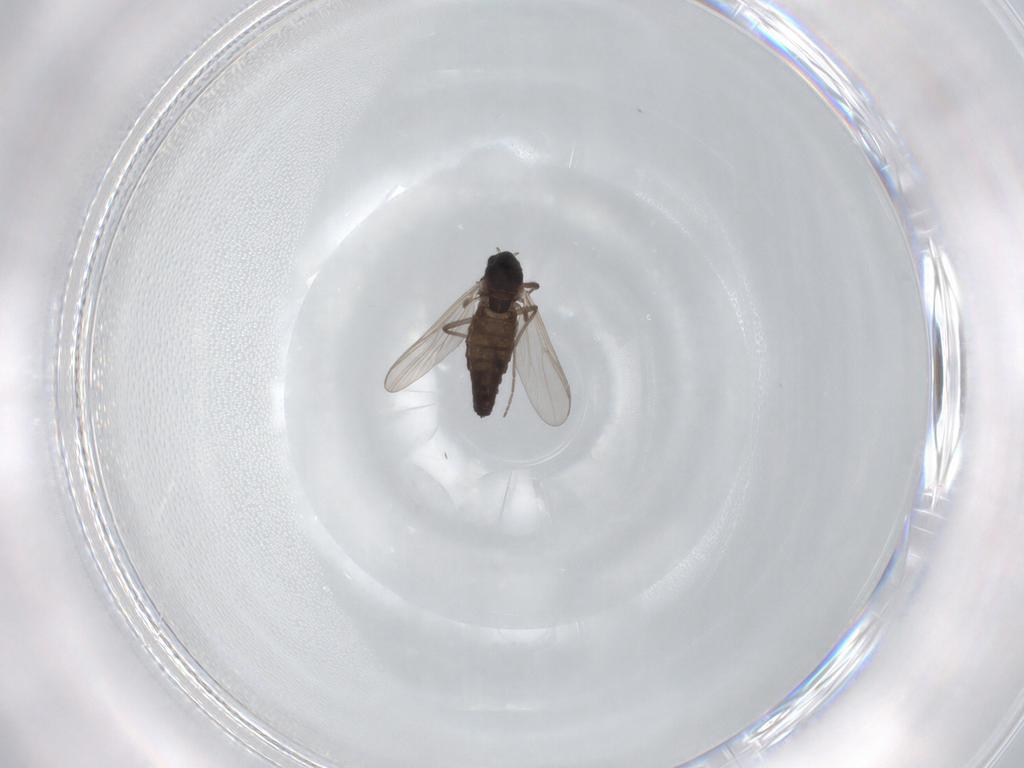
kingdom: Animalia
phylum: Arthropoda
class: Insecta
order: Diptera
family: Chironomidae
